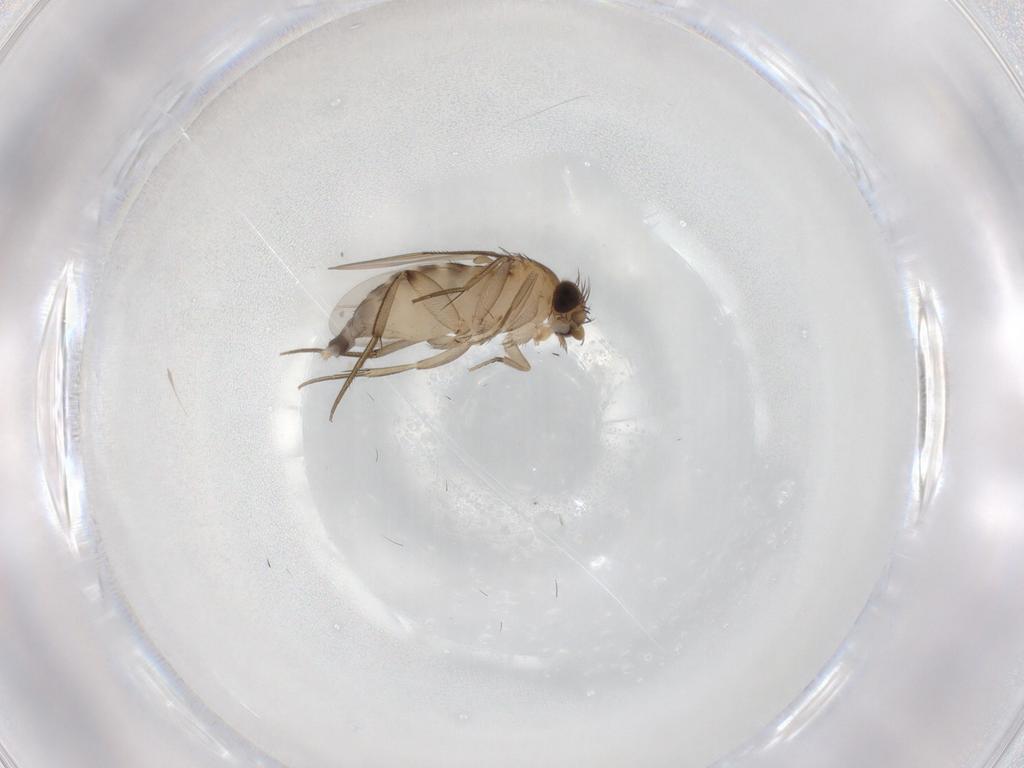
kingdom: Animalia
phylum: Arthropoda
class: Insecta
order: Diptera
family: Phoridae
